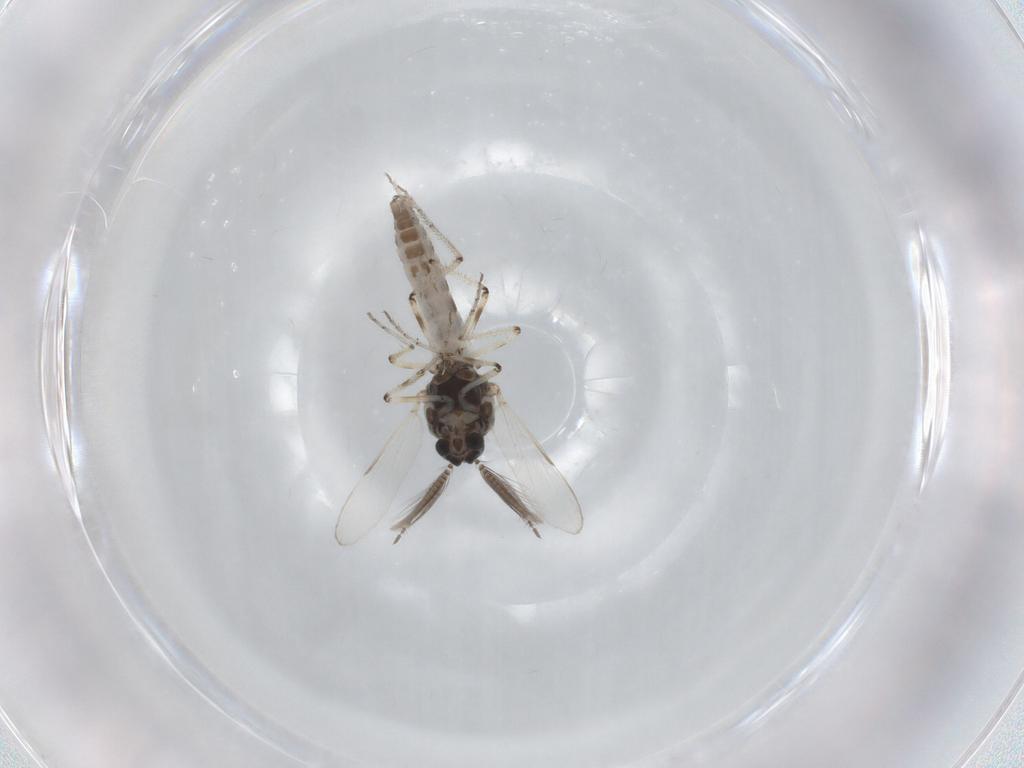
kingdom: Animalia
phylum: Arthropoda
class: Insecta
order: Diptera
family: Ceratopogonidae
